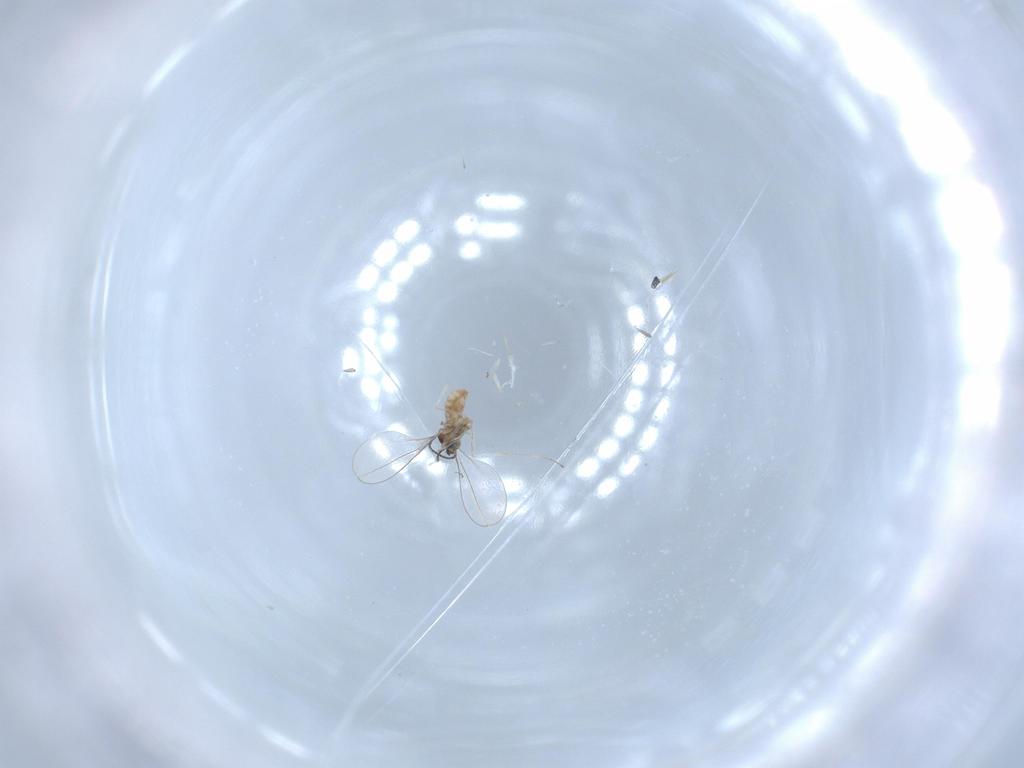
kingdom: Animalia
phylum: Arthropoda
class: Insecta
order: Diptera
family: Cecidomyiidae
